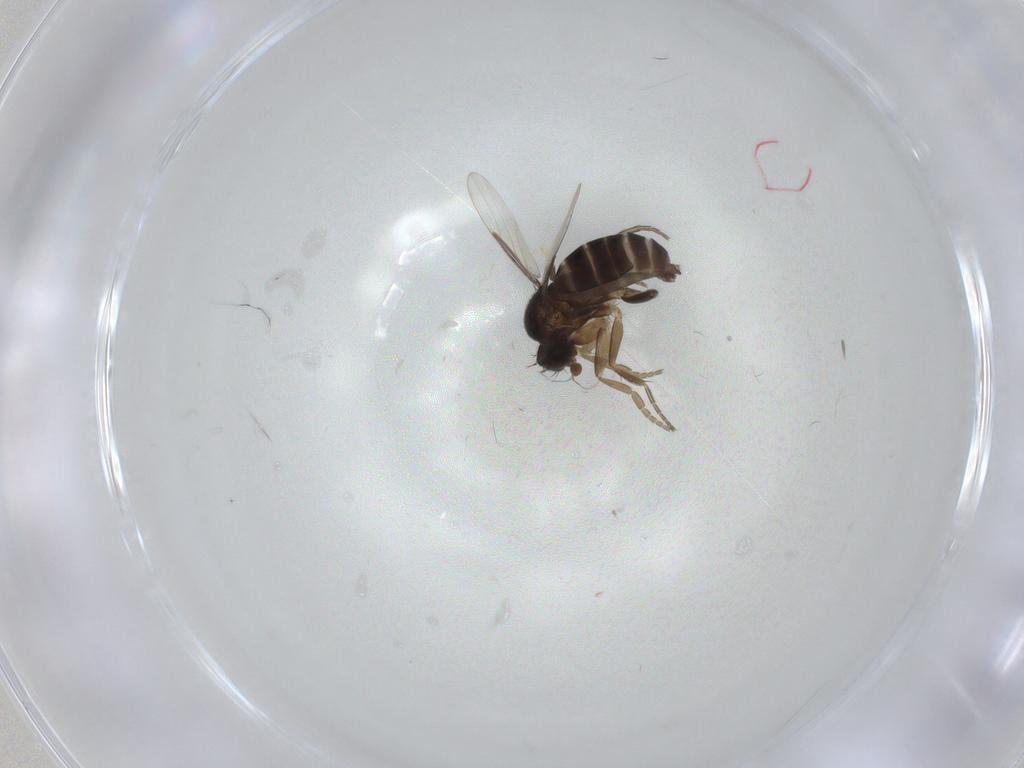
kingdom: Animalia
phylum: Arthropoda
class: Insecta
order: Diptera
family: Phoridae
